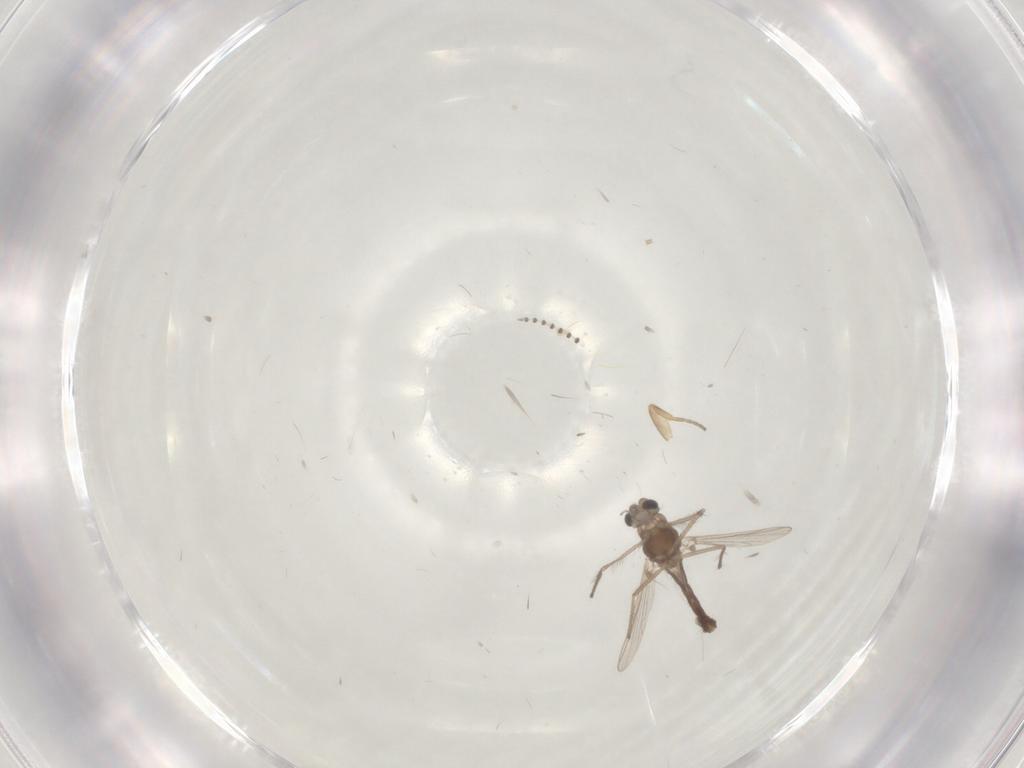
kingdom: Animalia
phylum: Arthropoda
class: Insecta
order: Diptera
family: Chironomidae
